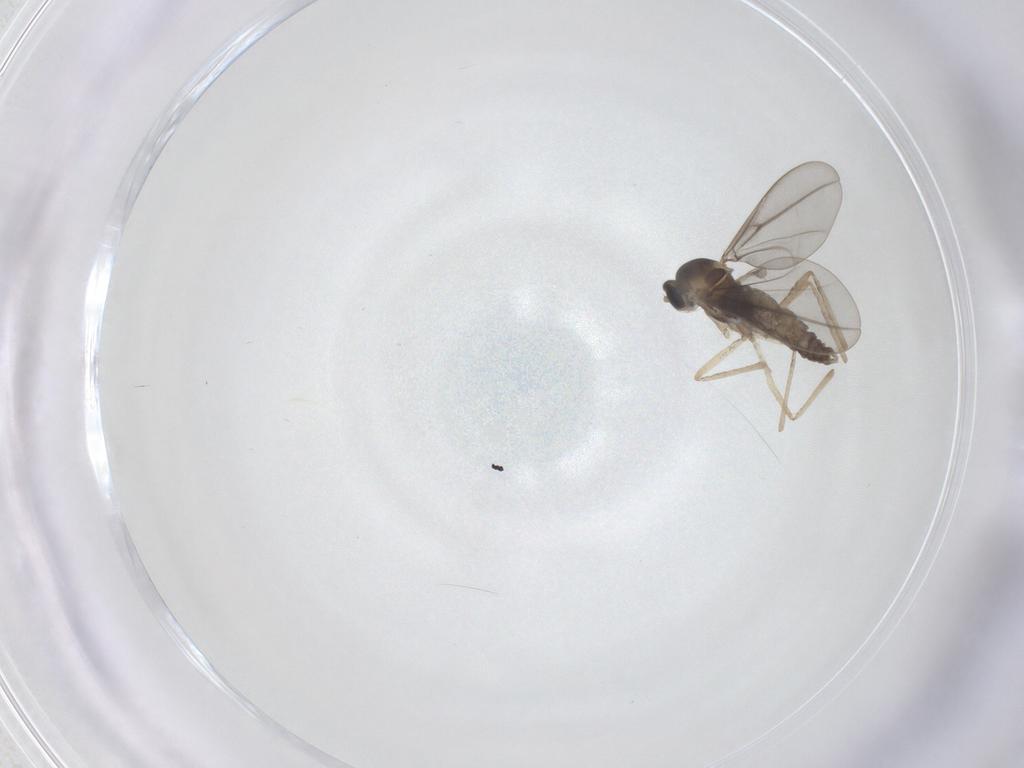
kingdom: Animalia
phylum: Arthropoda
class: Insecta
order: Diptera
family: Cecidomyiidae
